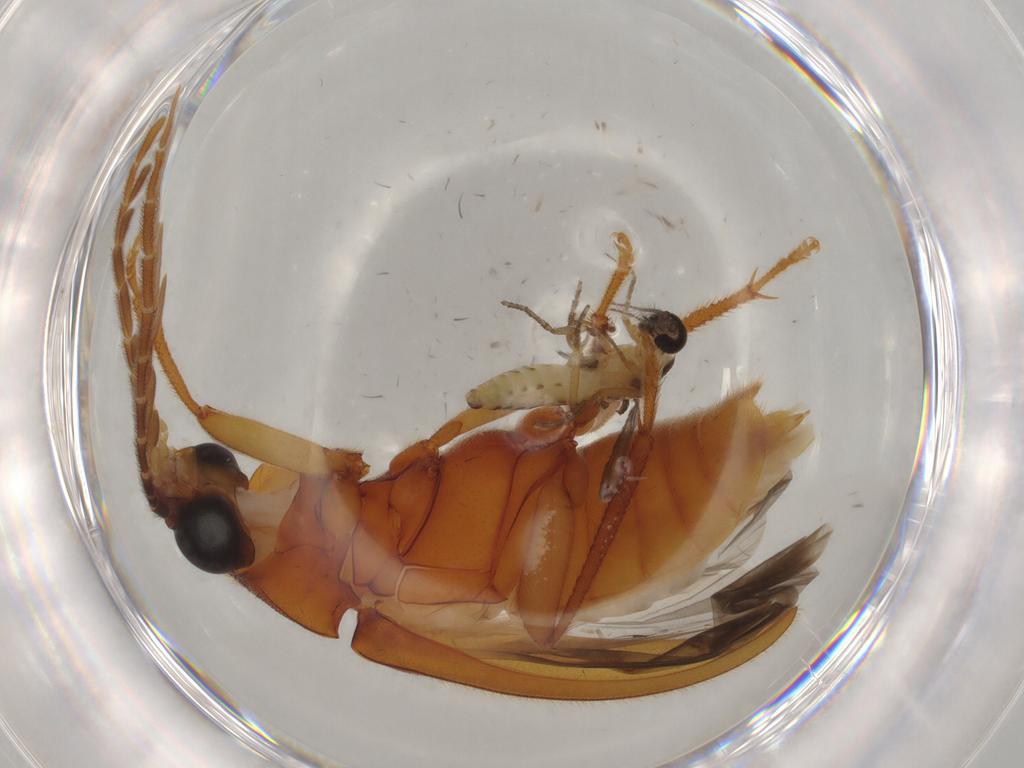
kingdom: Animalia
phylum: Arthropoda
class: Insecta
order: Diptera
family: Ceratopogonidae
